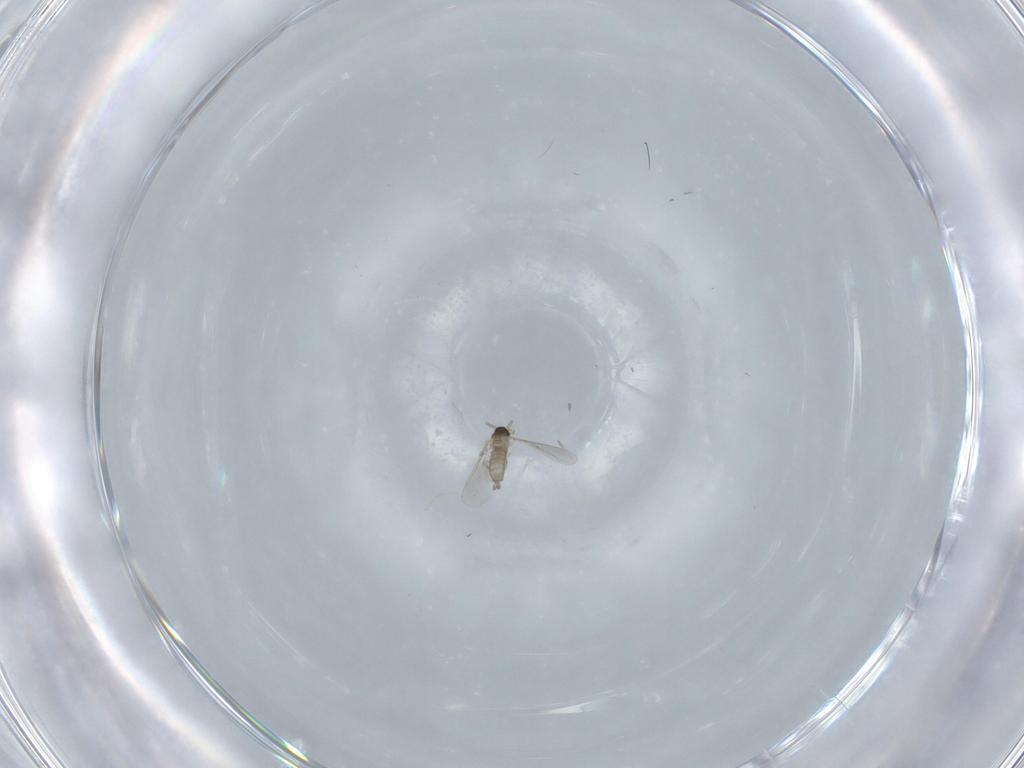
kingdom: Animalia
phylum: Arthropoda
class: Insecta
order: Diptera
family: Cecidomyiidae
